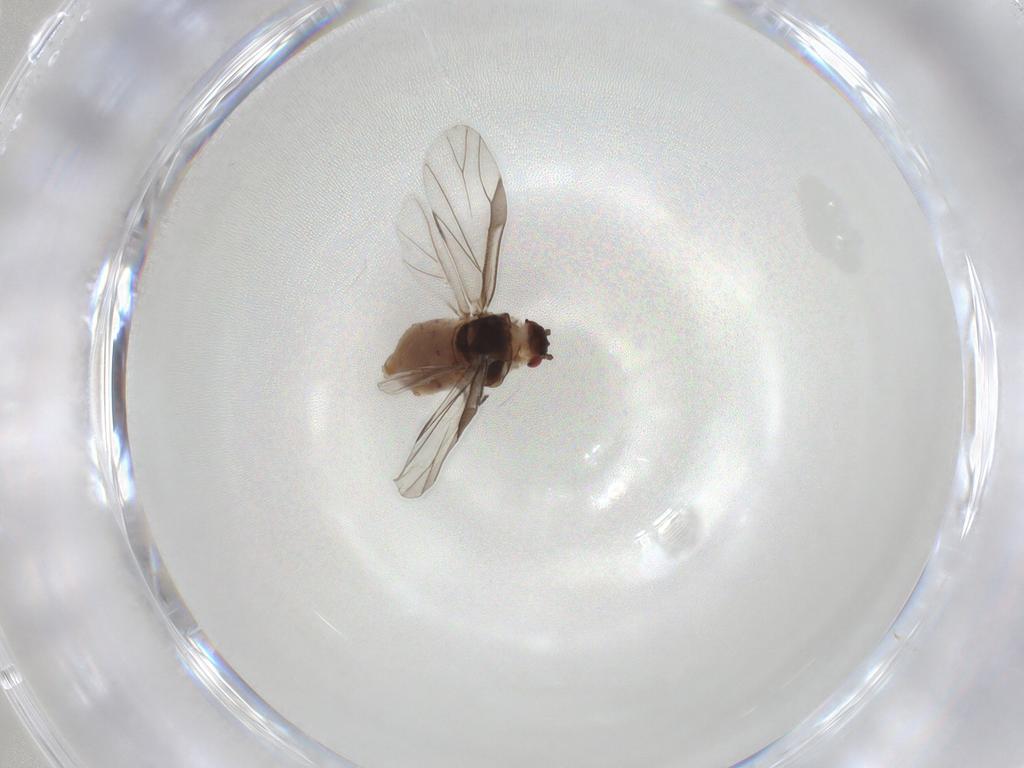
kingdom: Animalia
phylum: Arthropoda
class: Insecta
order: Hemiptera
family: Aphididae
